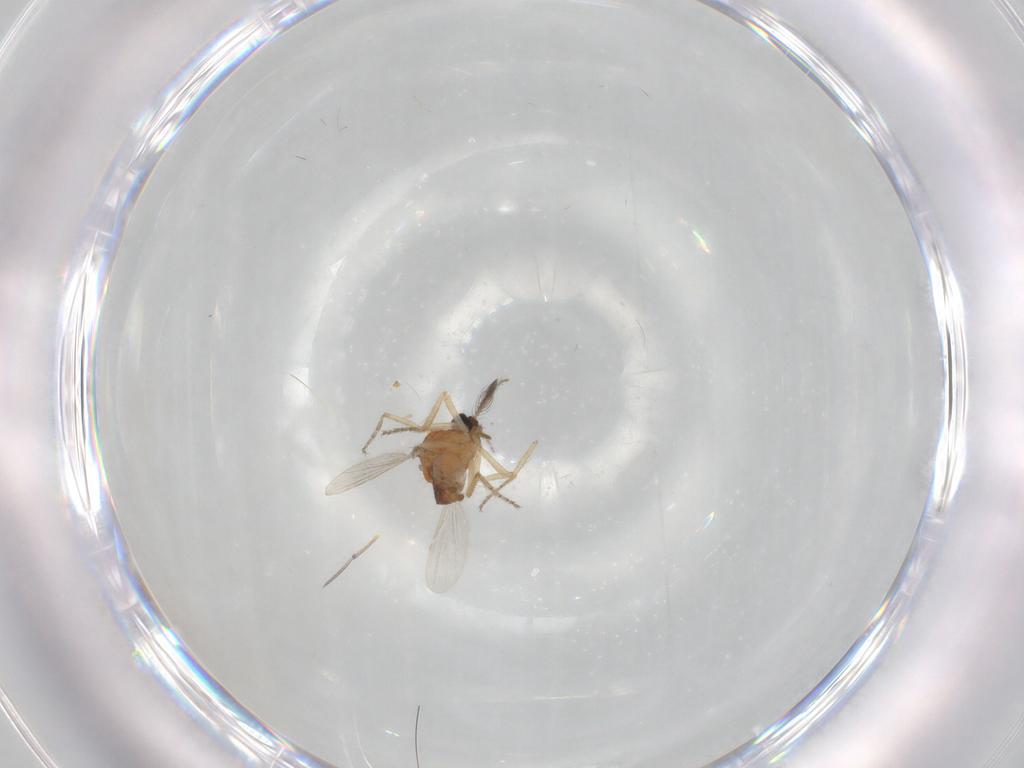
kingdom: Animalia
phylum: Arthropoda
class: Insecta
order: Diptera
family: Ceratopogonidae
